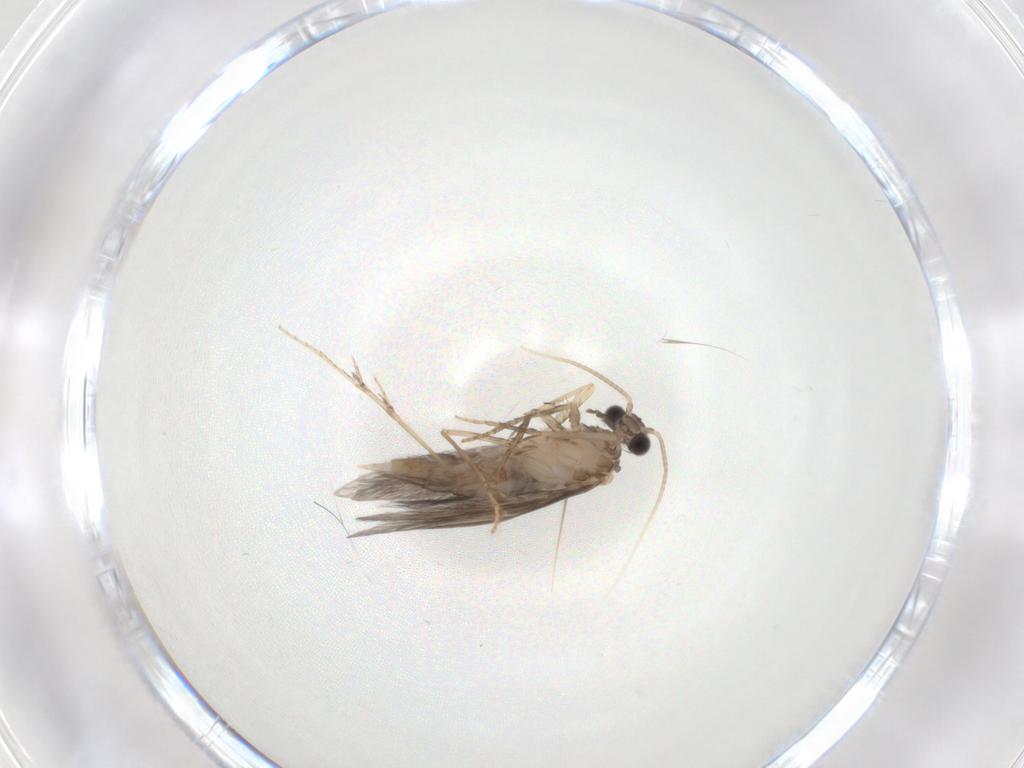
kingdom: Animalia
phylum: Arthropoda
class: Insecta
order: Trichoptera
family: Hydroptilidae
